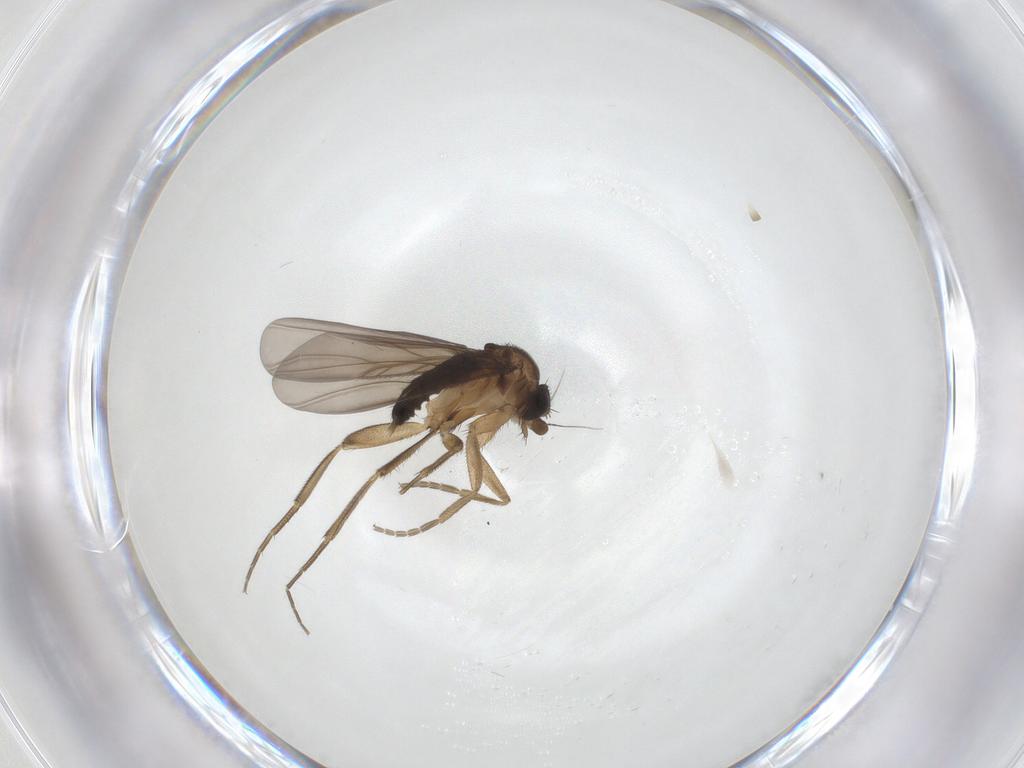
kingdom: Animalia
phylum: Arthropoda
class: Insecta
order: Diptera
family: Phoridae
